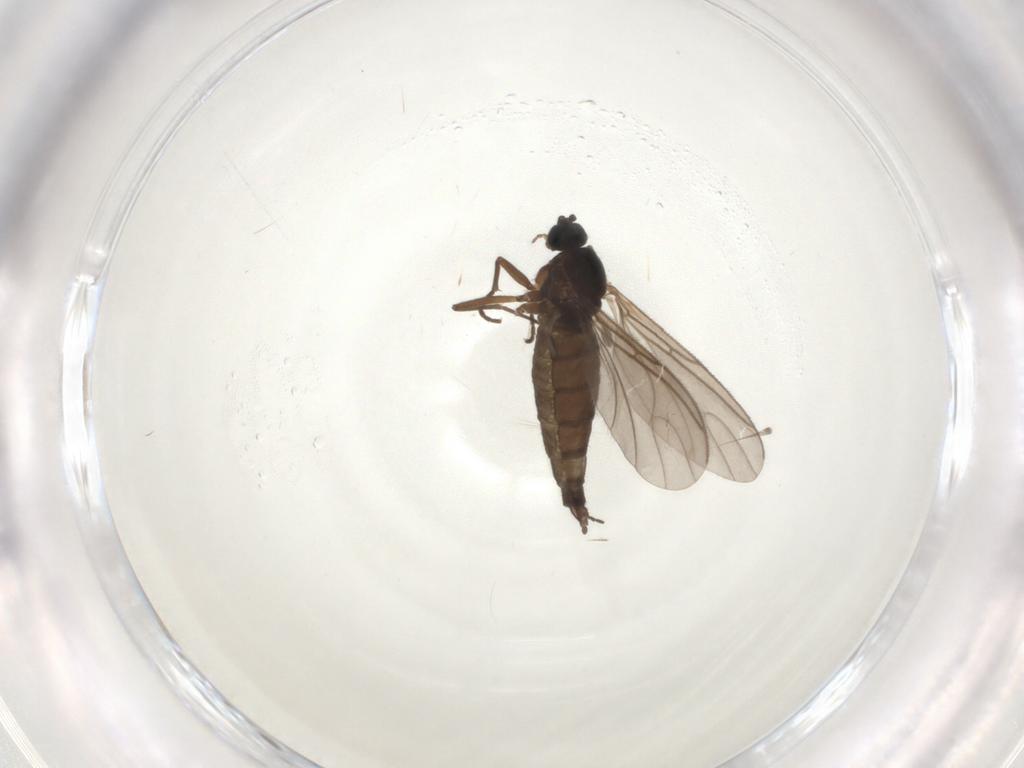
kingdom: Animalia
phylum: Arthropoda
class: Insecta
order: Diptera
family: Sciaridae
